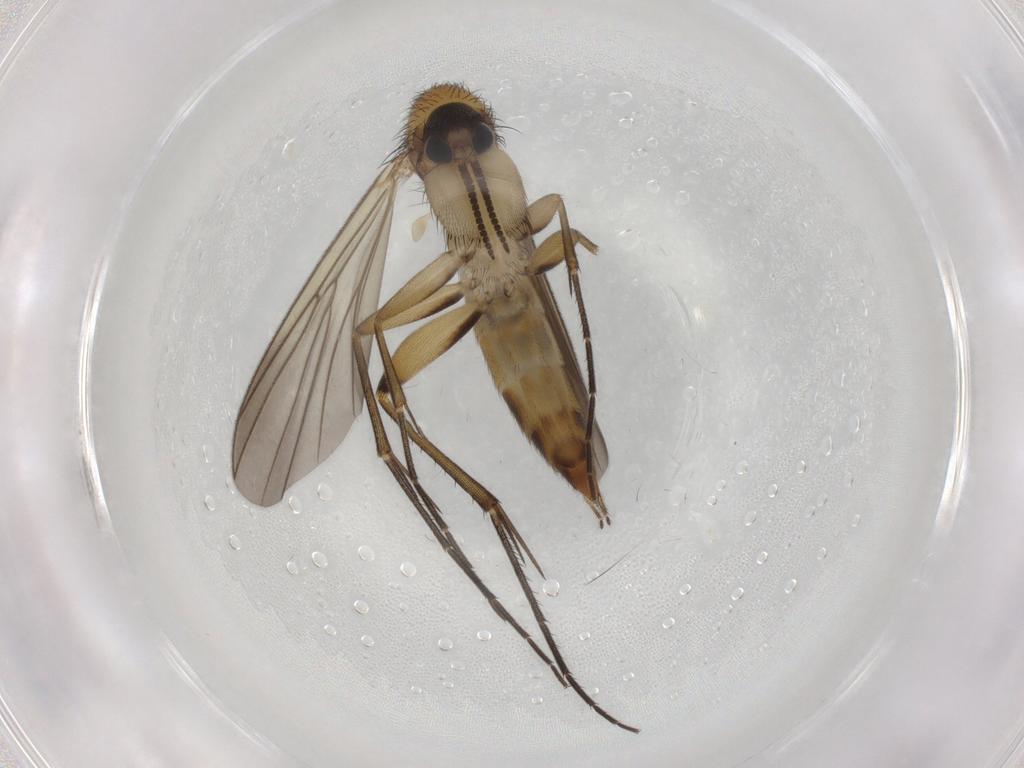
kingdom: Animalia
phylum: Arthropoda
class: Insecta
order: Diptera
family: Mycetophilidae
